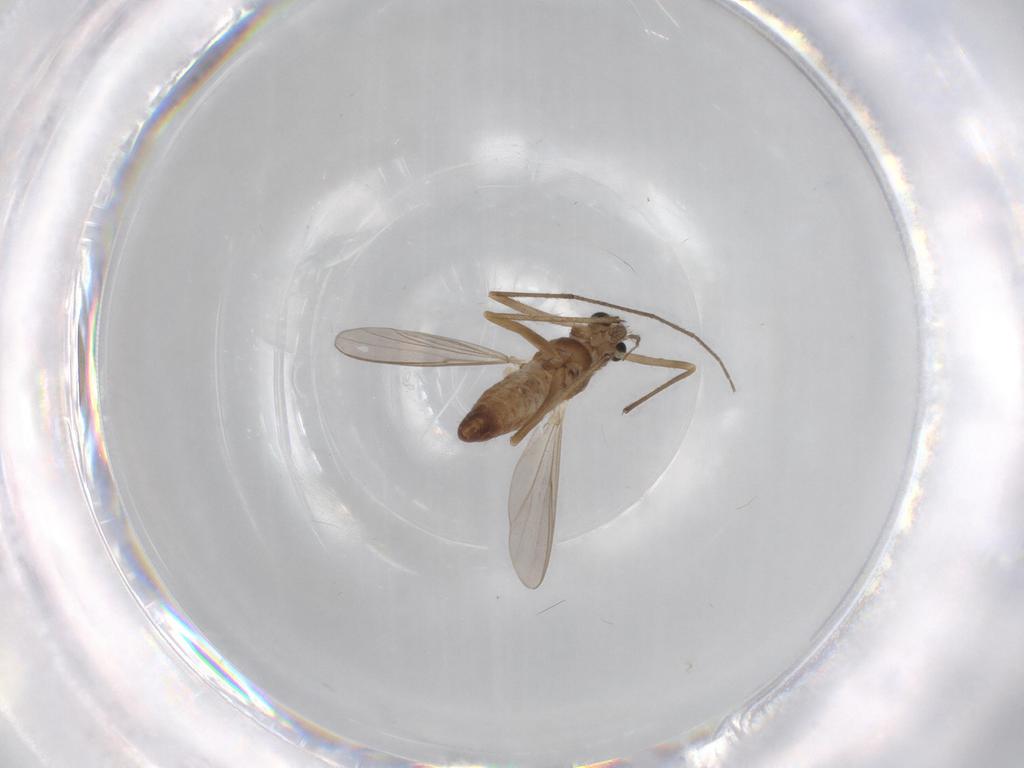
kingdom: Animalia
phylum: Arthropoda
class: Insecta
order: Diptera
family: Chironomidae
